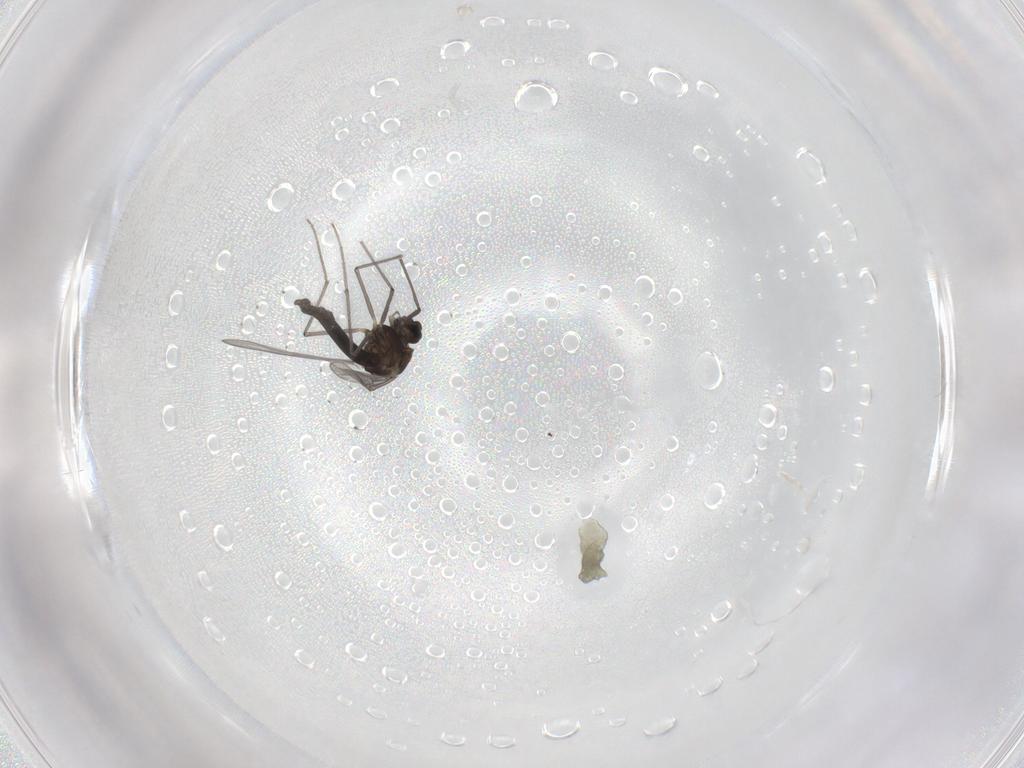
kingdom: Animalia
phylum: Arthropoda
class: Insecta
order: Diptera
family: Chironomidae
